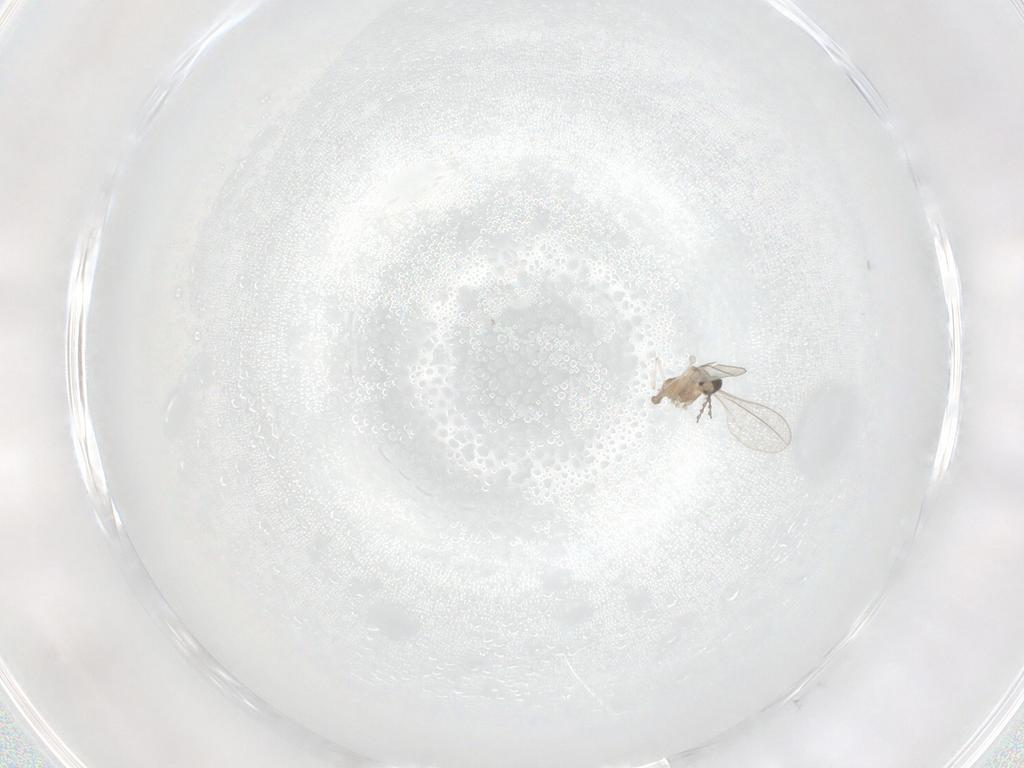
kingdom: Animalia
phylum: Arthropoda
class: Insecta
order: Diptera
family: Cecidomyiidae
